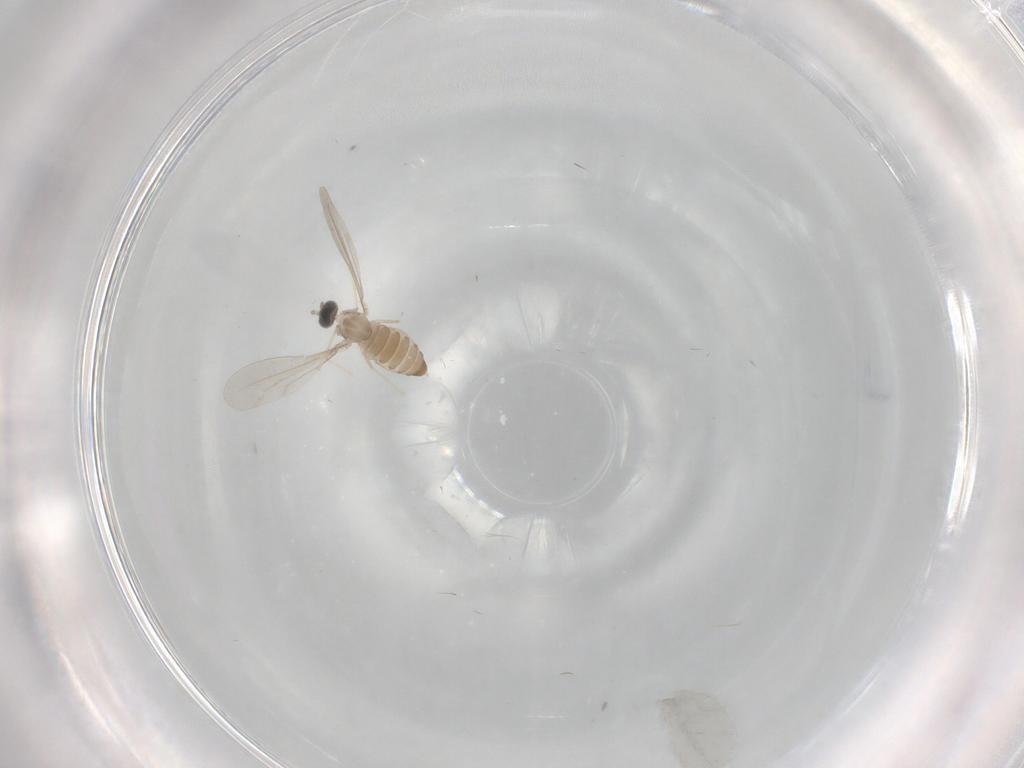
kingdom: Animalia
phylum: Arthropoda
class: Insecta
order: Diptera
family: Cecidomyiidae
